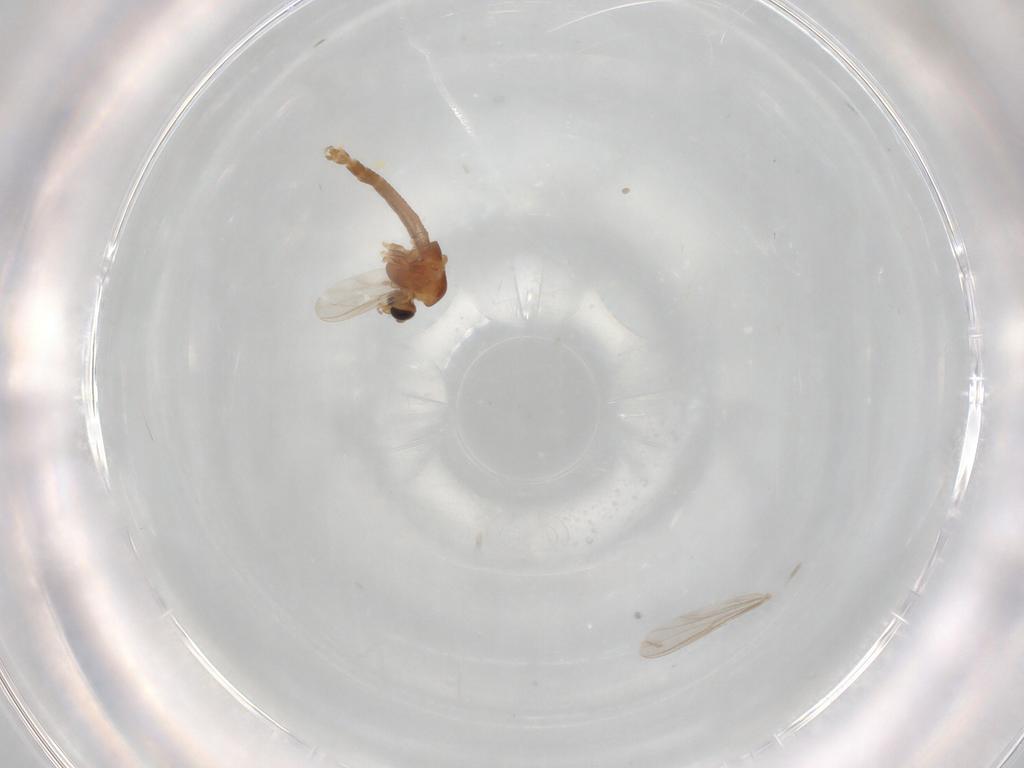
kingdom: Animalia
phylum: Arthropoda
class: Insecta
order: Diptera
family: Chironomidae
